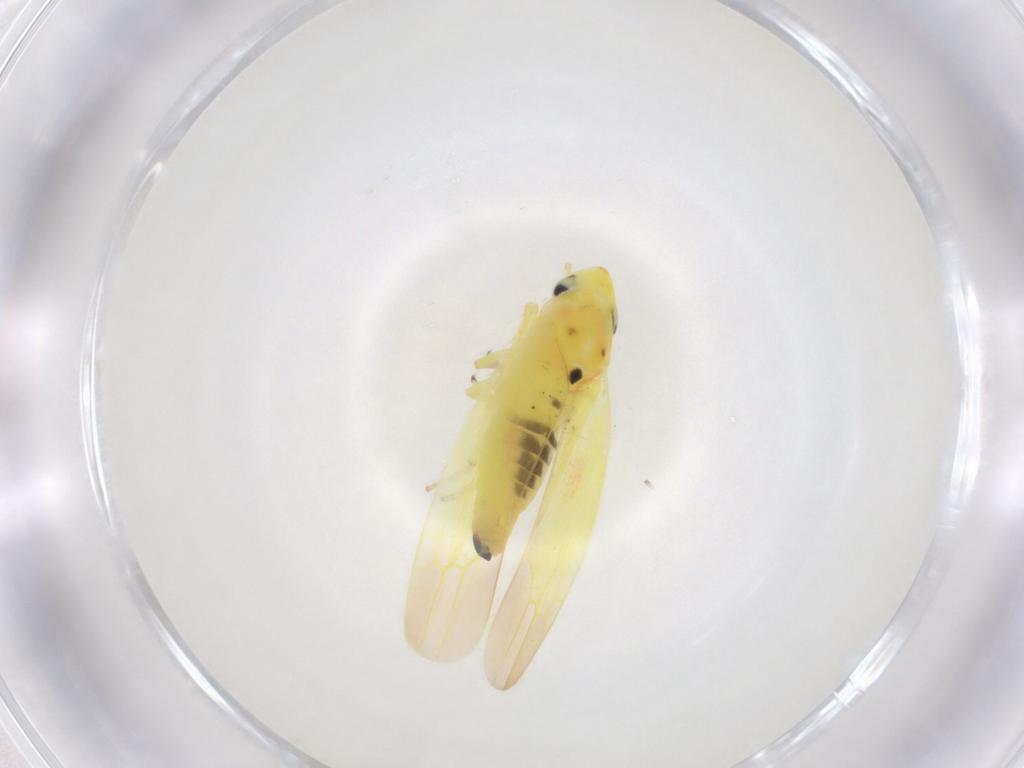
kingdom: Animalia
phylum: Arthropoda
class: Insecta
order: Hemiptera
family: Cicadellidae
